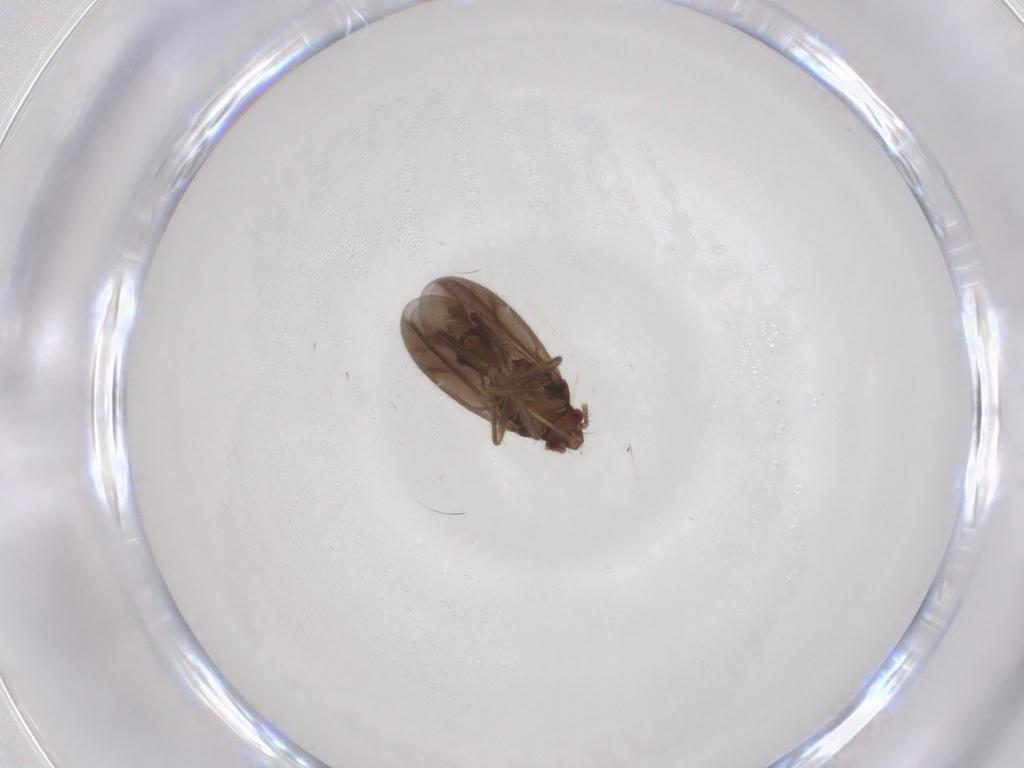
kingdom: Animalia
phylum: Arthropoda
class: Insecta
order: Hemiptera
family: Ceratocombidae
